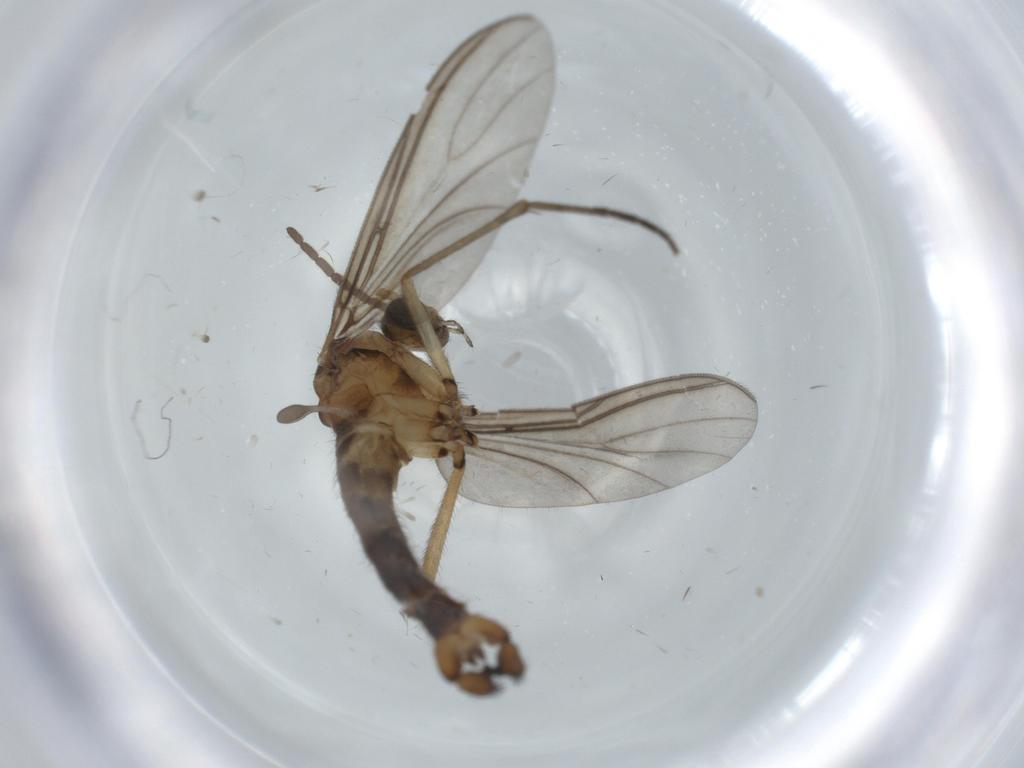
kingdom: Animalia
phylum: Arthropoda
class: Insecta
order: Diptera
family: Sciaridae
